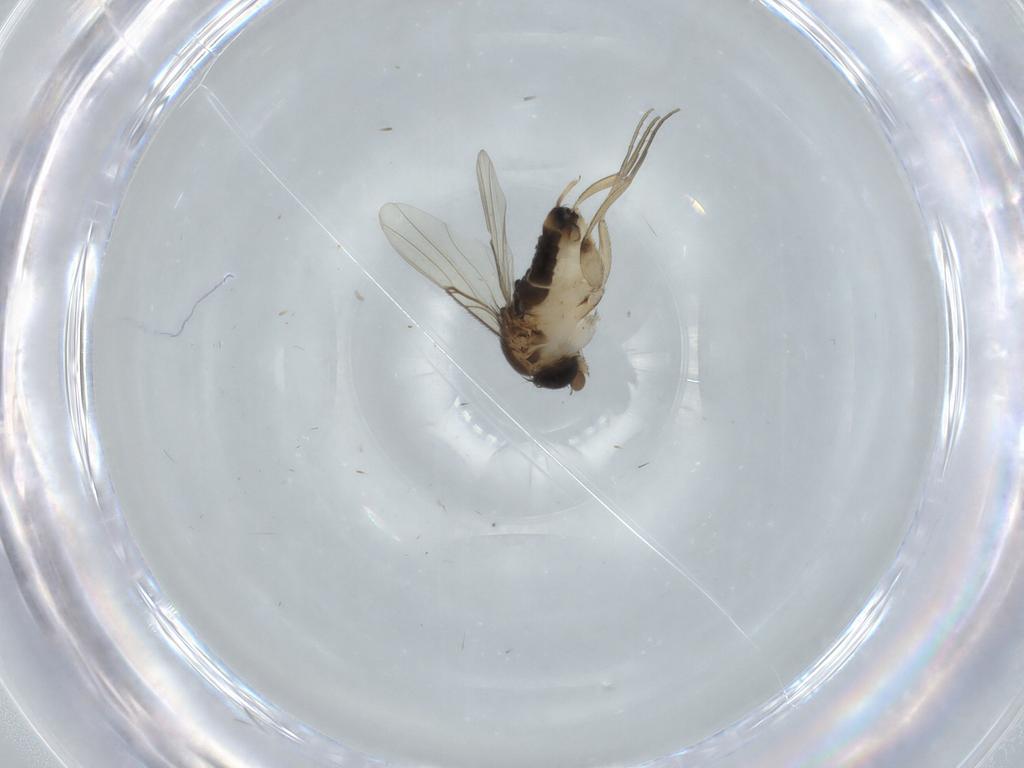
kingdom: Animalia
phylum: Arthropoda
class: Insecta
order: Diptera
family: Phoridae
